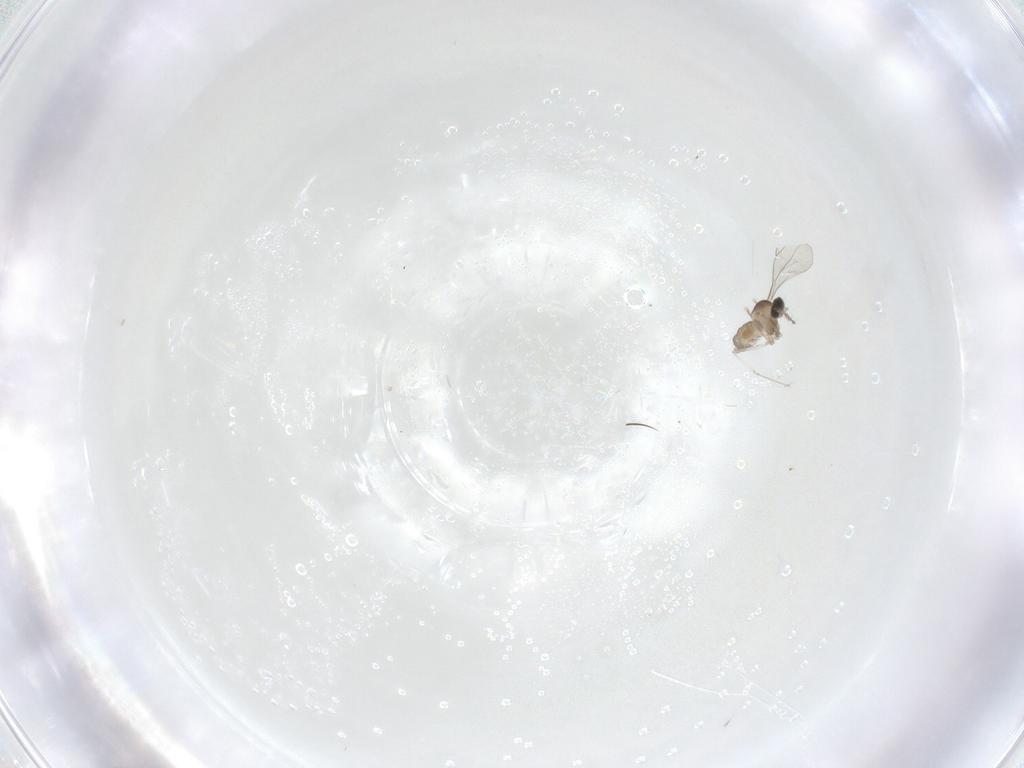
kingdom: Animalia
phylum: Arthropoda
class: Insecta
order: Diptera
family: Cecidomyiidae
